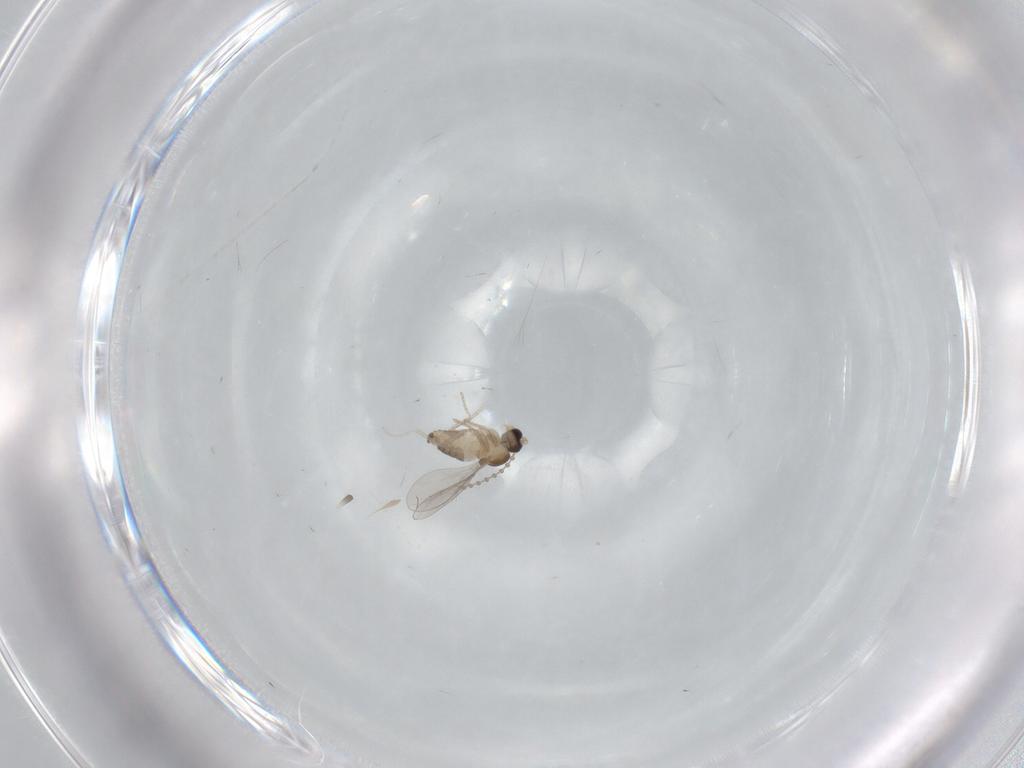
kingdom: Animalia
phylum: Arthropoda
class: Insecta
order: Diptera
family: Cecidomyiidae
